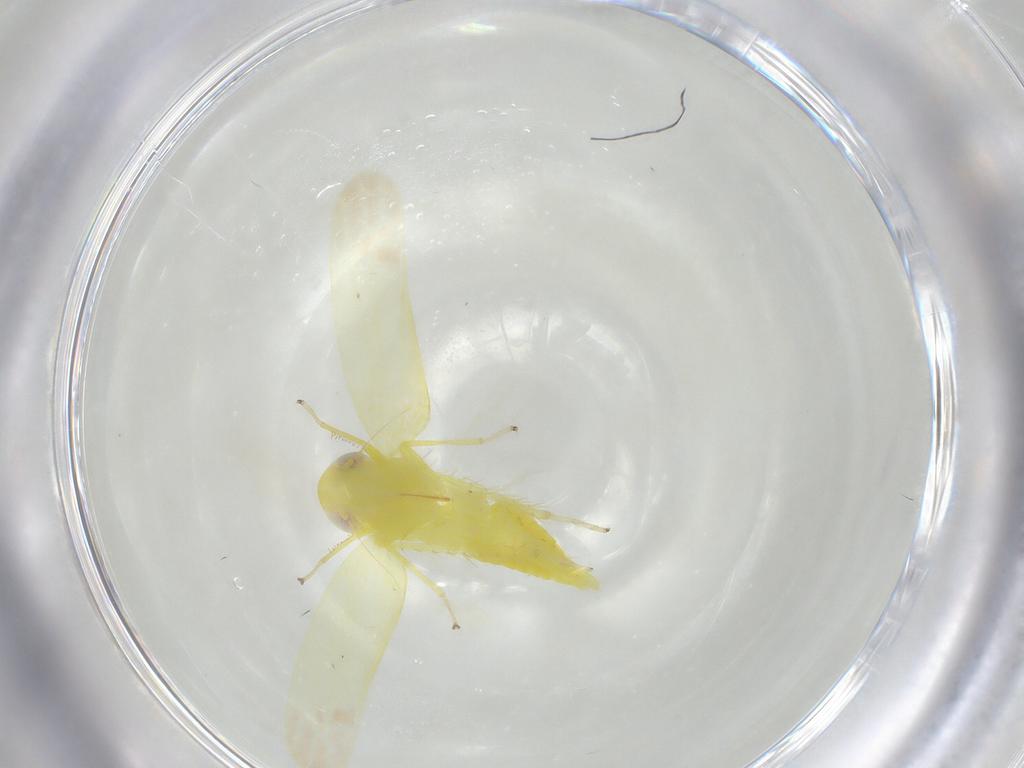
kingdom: Animalia
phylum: Arthropoda
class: Insecta
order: Hemiptera
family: Cicadellidae
